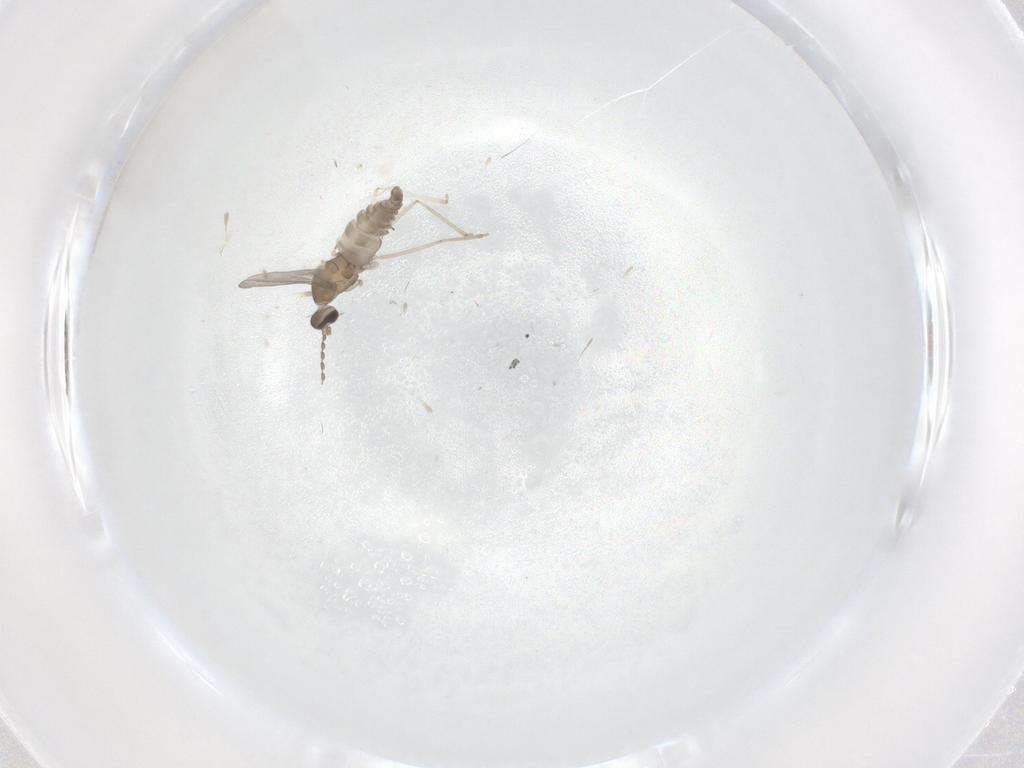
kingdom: Animalia
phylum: Arthropoda
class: Insecta
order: Diptera
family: Cecidomyiidae
